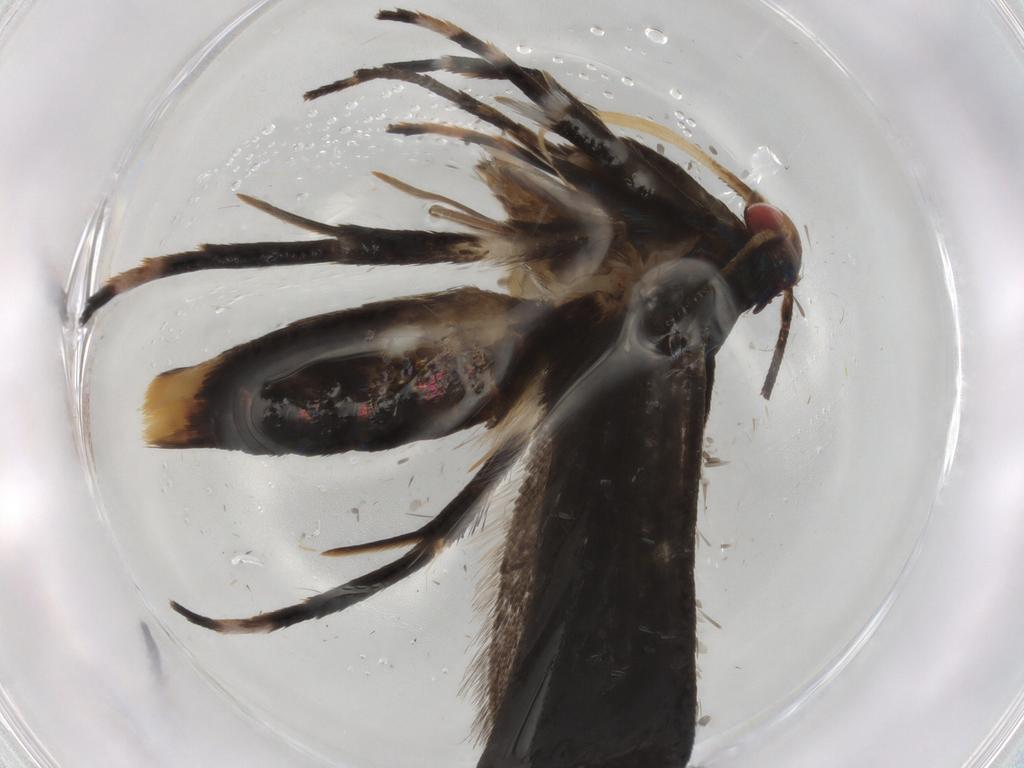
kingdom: Animalia
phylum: Arthropoda
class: Insecta
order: Lepidoptera
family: Gelechiidae
